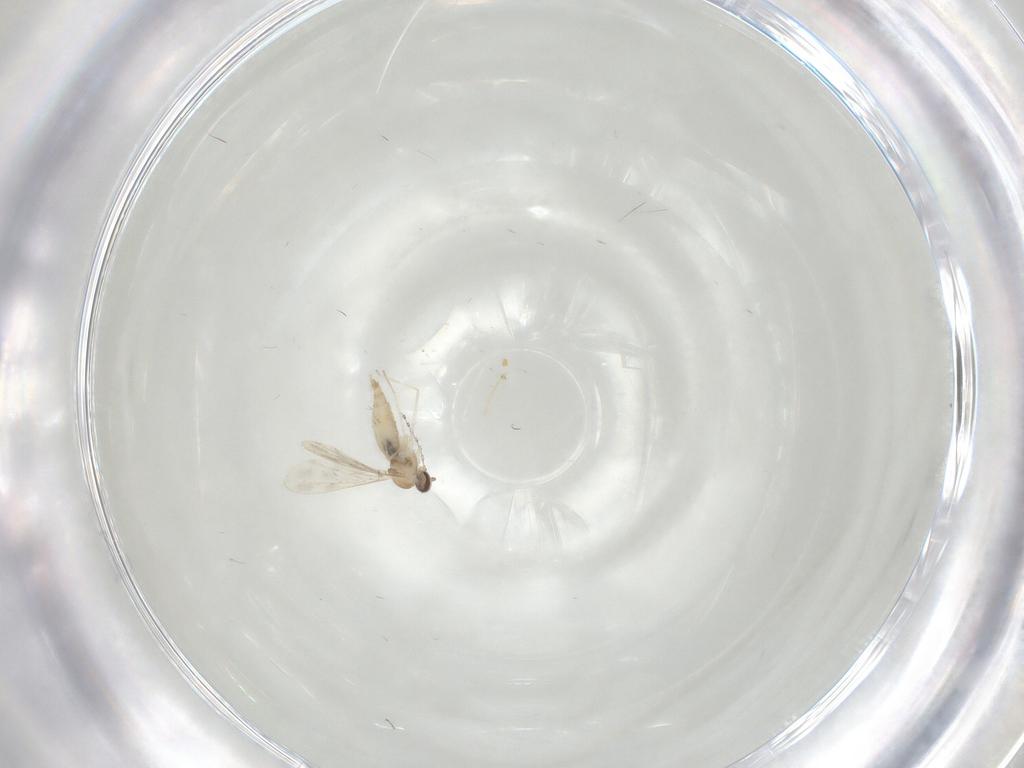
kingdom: Animalia
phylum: Arthropoda
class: Insecta
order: Diptera
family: Cecidomyiidae
